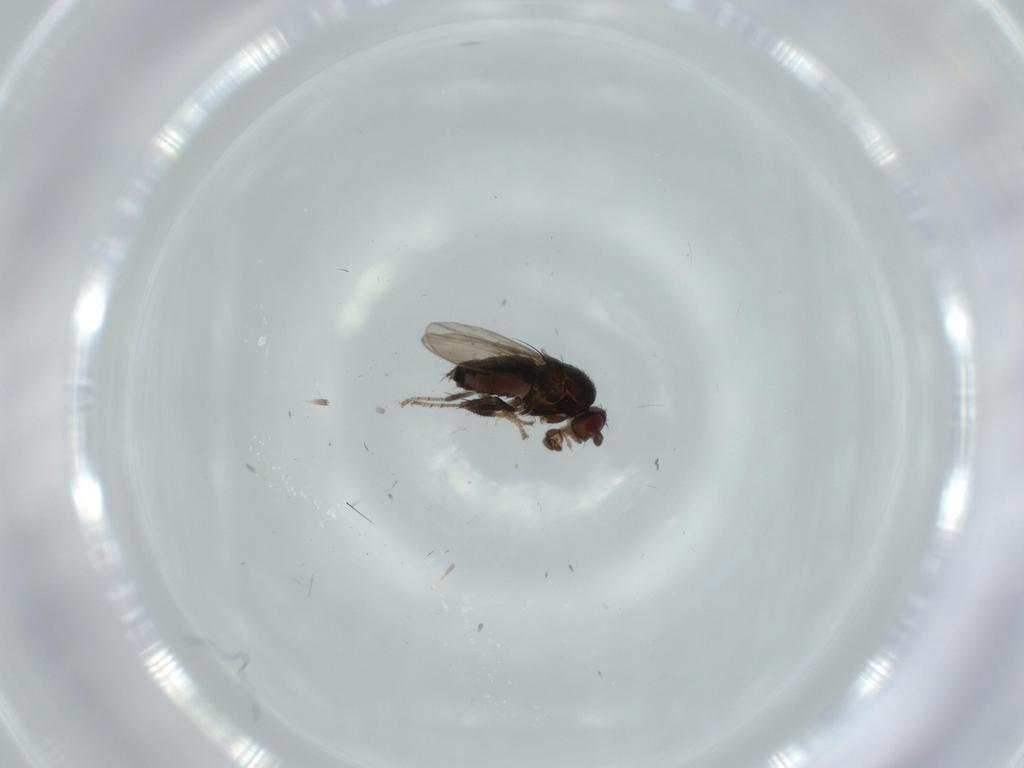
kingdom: Animalia
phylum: Arthropoda
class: Insecta
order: Diptera
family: Sphaeroceridae
